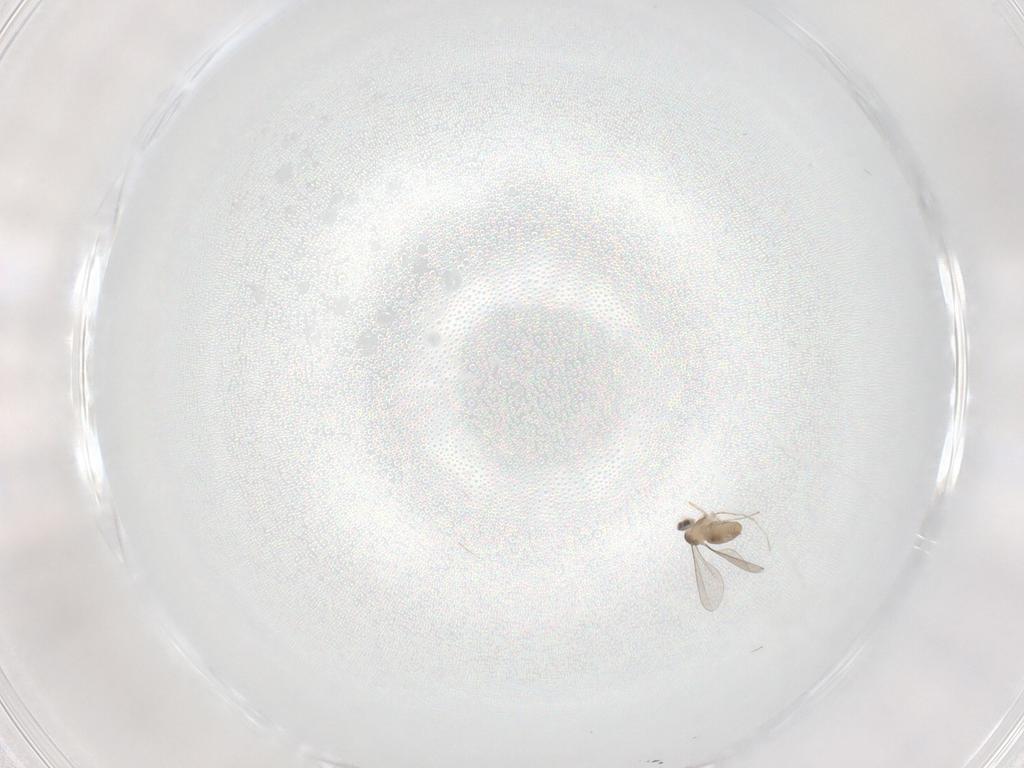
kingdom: Animalia
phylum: Arthropoda
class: Insecta
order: Diptera
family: Cecidomyiidae
